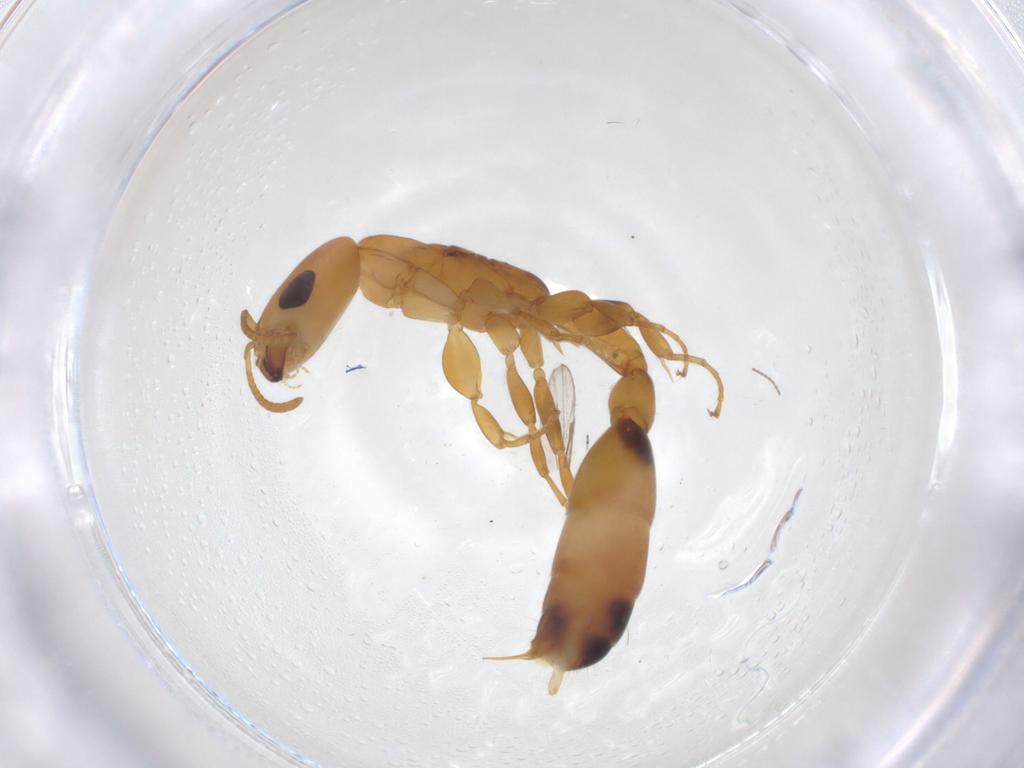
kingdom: Animalia
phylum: Arthropoda
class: Insecta
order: Hymenoptera
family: Formicidae
